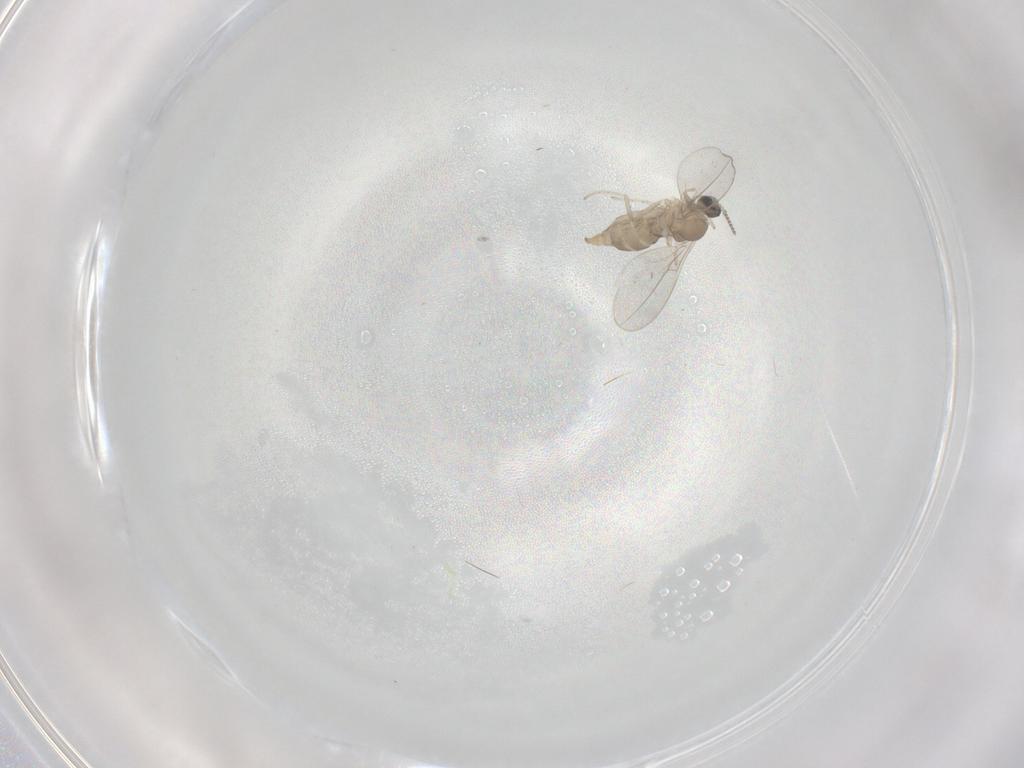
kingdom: Animalia
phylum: Arthropoda
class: Insecta
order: Diptera
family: Cecidomyiidae
